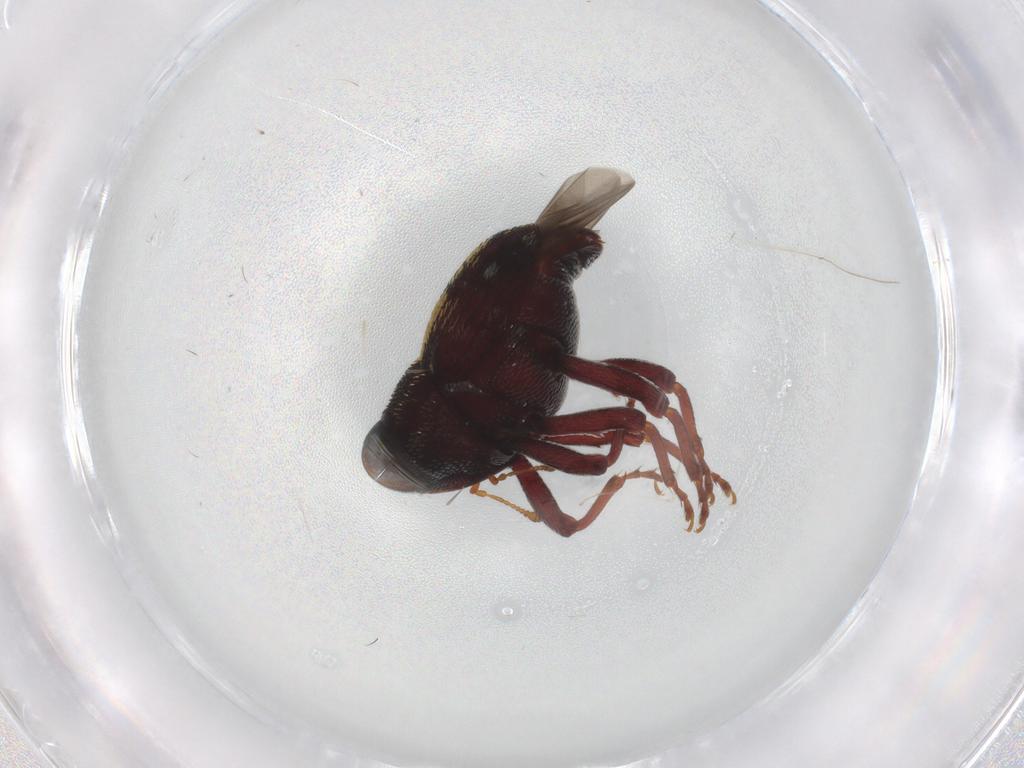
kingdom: Animalia
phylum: Arthropoda
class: Insecta
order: Coleoptera
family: Curculionidae
